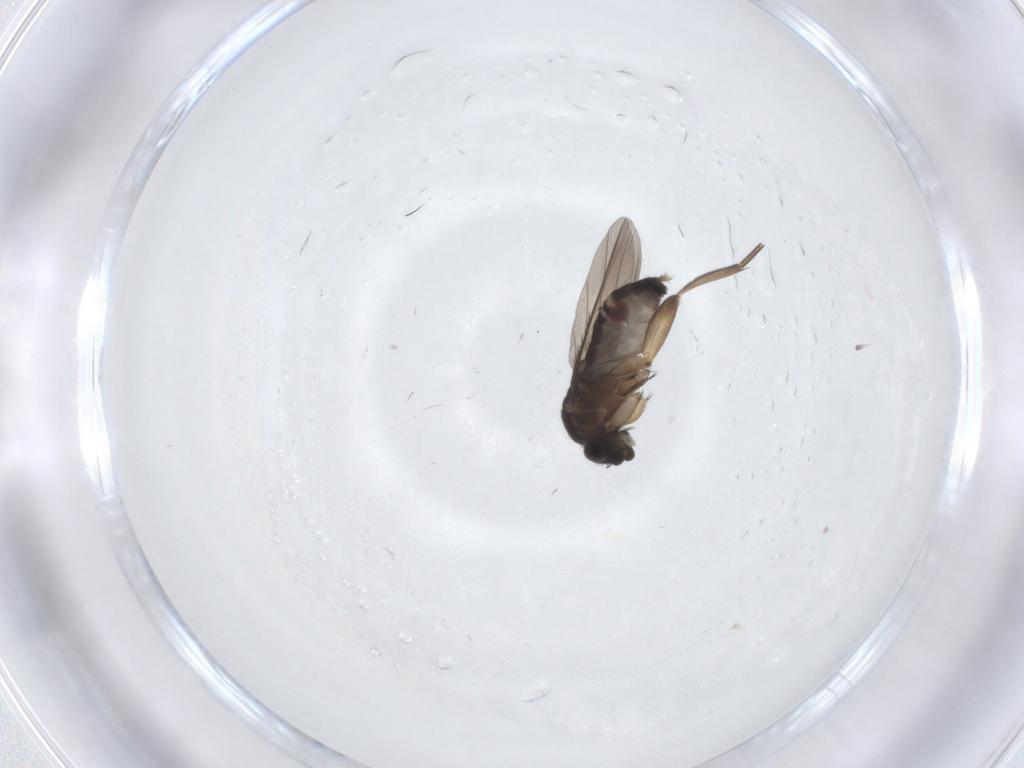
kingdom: Animalia
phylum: Arthropoda
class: Insecta
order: Diptera
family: Phoridae
